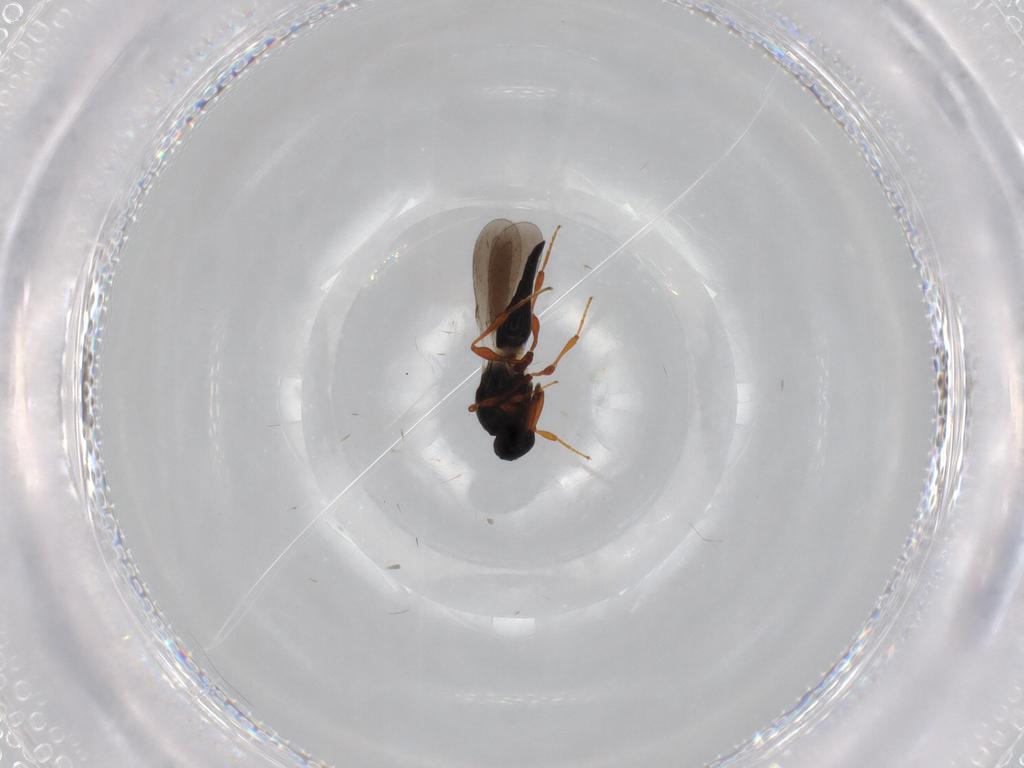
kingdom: Animalia
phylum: Arthropoda
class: Insecta
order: Hymenoptera
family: Platygastridae
